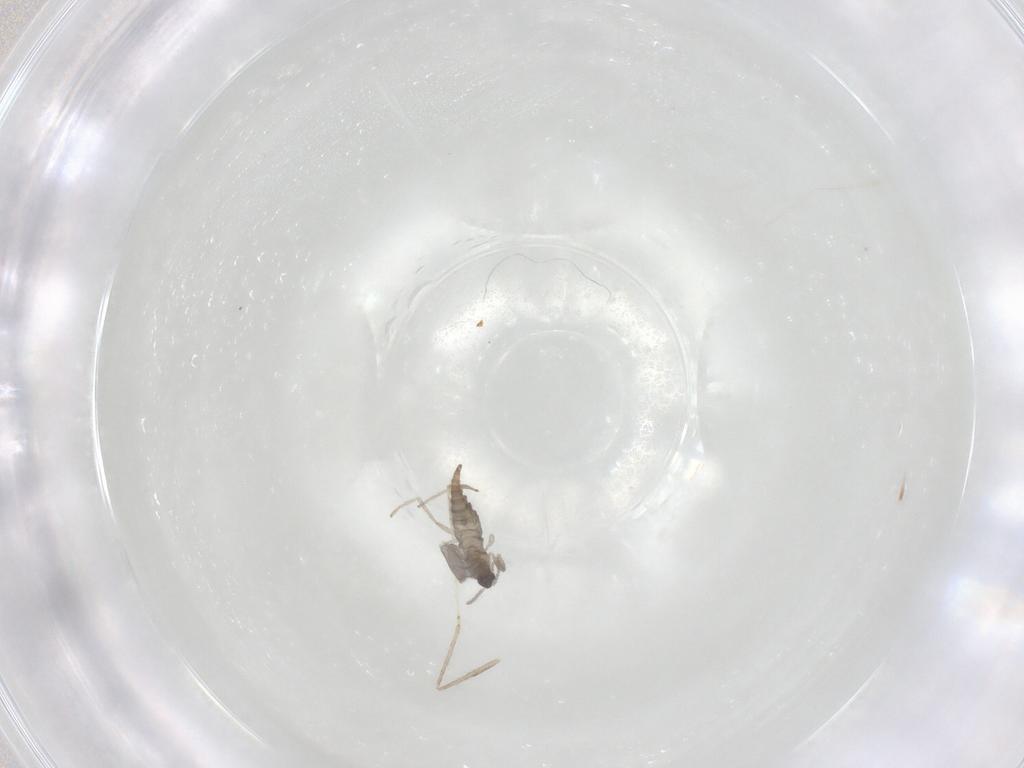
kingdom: Animalia
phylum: Arthropoda
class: Insecta
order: Diptera
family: Cecidomyiidae
